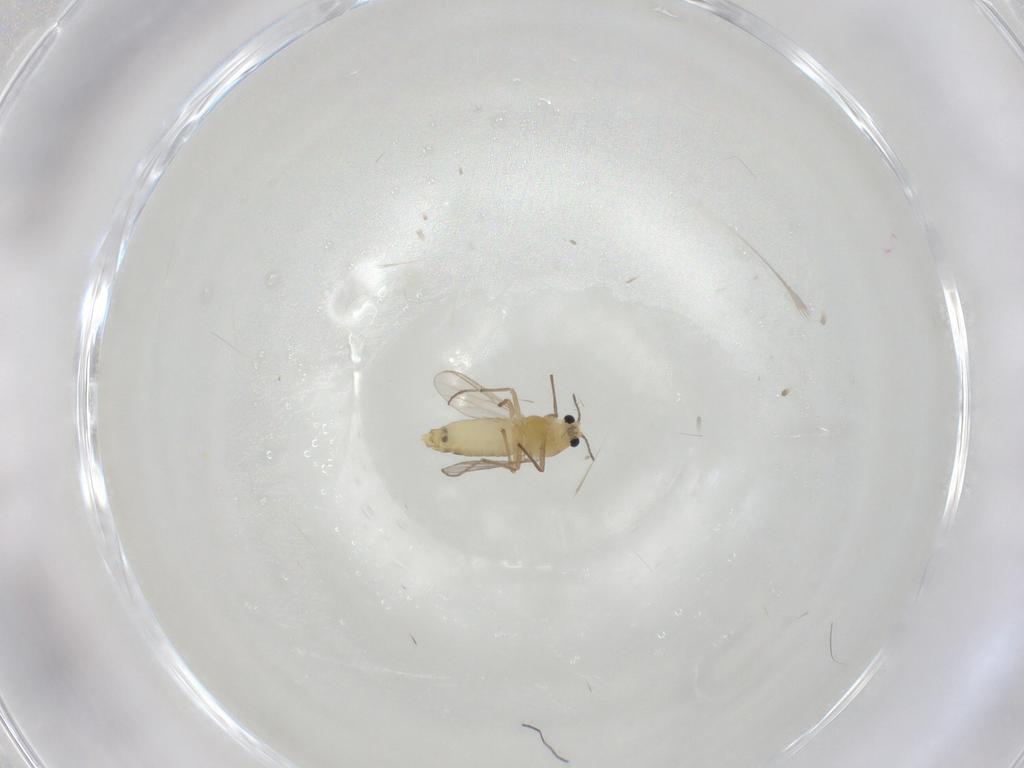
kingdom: Animalia
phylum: Arthropoda
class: Insecta
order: Diptera
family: Chironomidae
